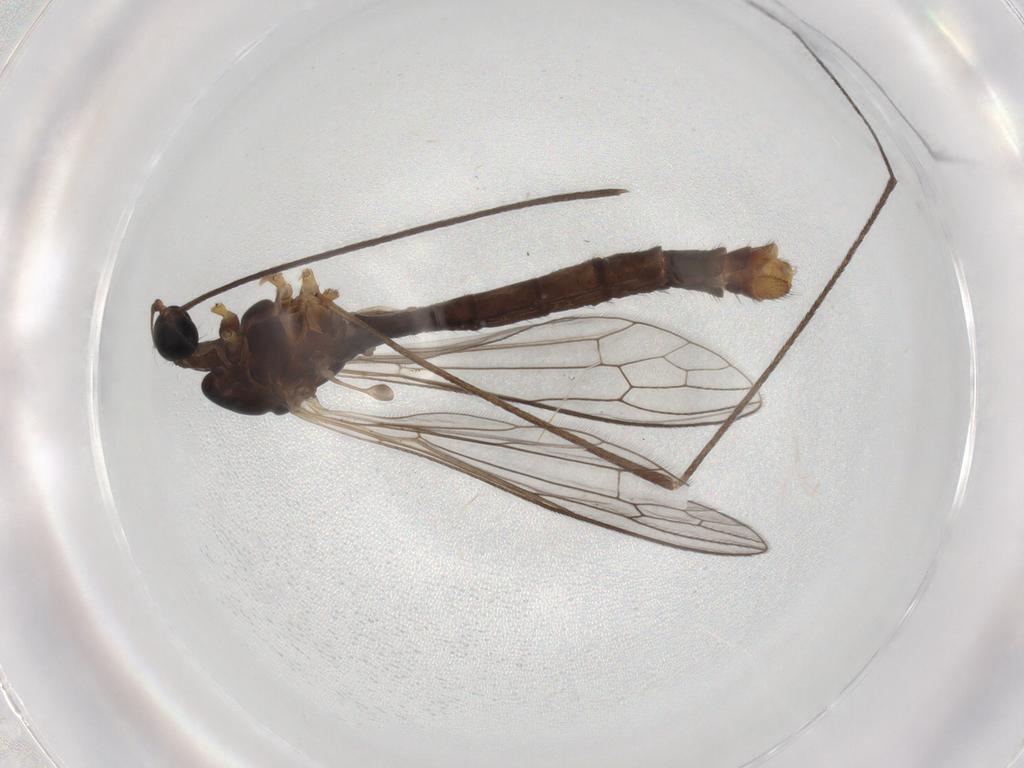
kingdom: Animalia
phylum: Arthropoda
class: Insecta
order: Diptera
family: Limoniidae
